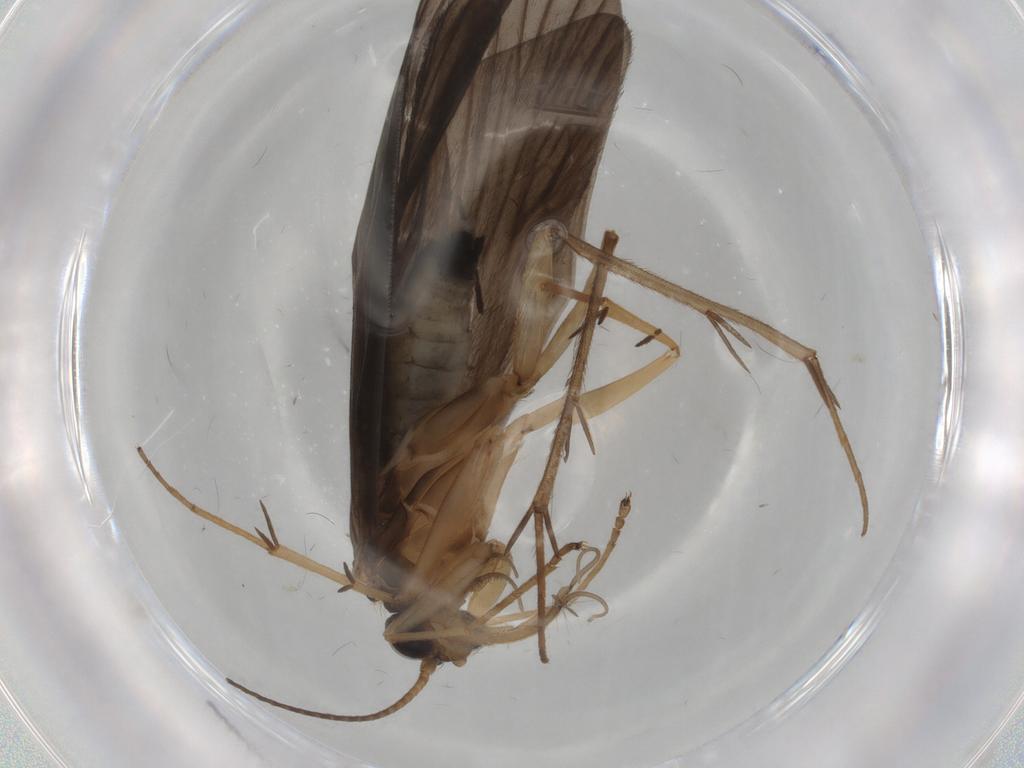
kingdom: Animalia
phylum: Arthropoda
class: Insecta
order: Trichoptera
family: Philopotamidae
